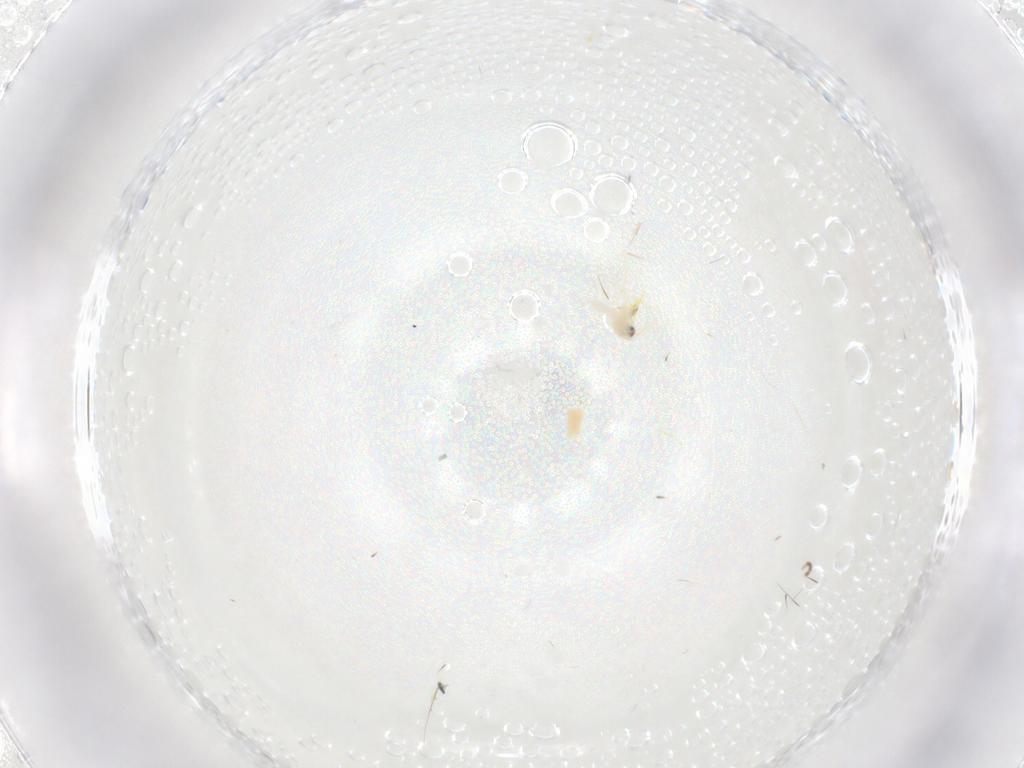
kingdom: Animalia
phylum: Arthropoda
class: Insecta
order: Hemiptera
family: Aleyrodidae
